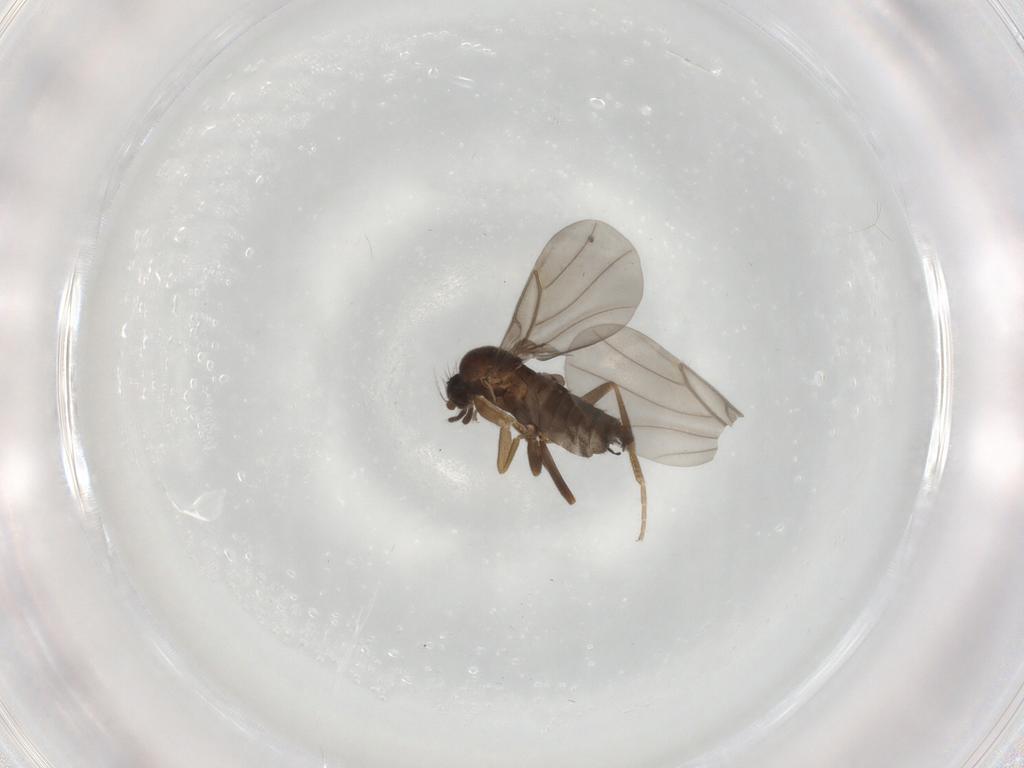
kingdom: Animalia
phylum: Arthropoda
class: Insecta
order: Diptera
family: Phoridae
